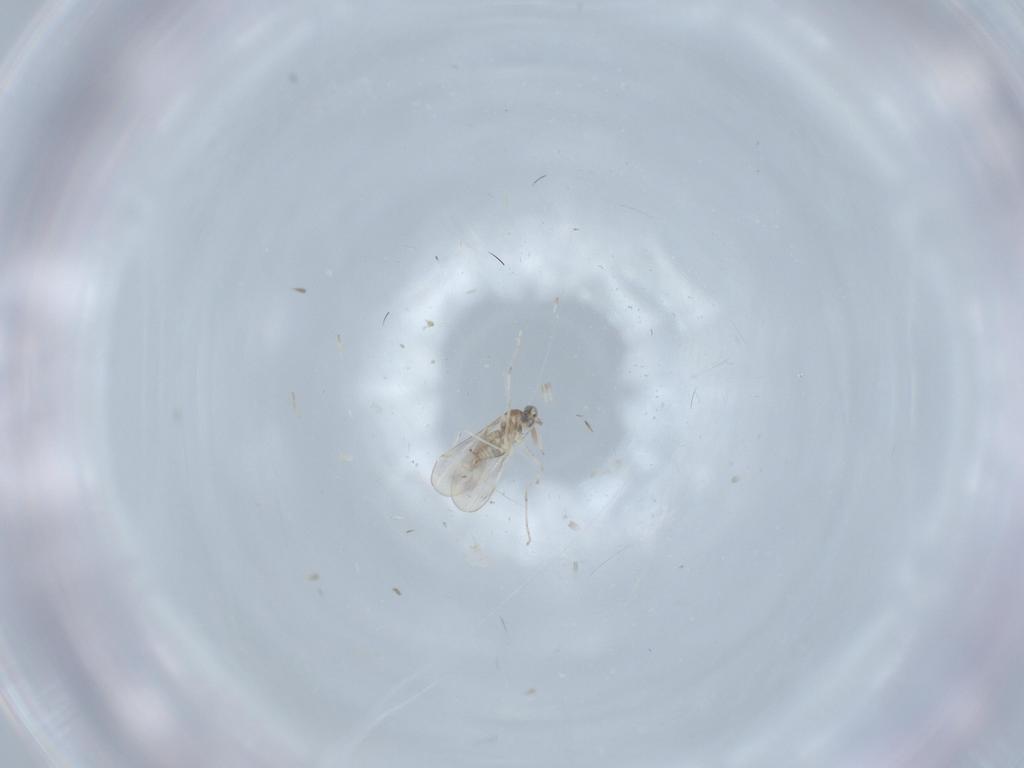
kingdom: Animalia
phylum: Arthropoda
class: Insecta
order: Diptera
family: Cecidomyiidae
